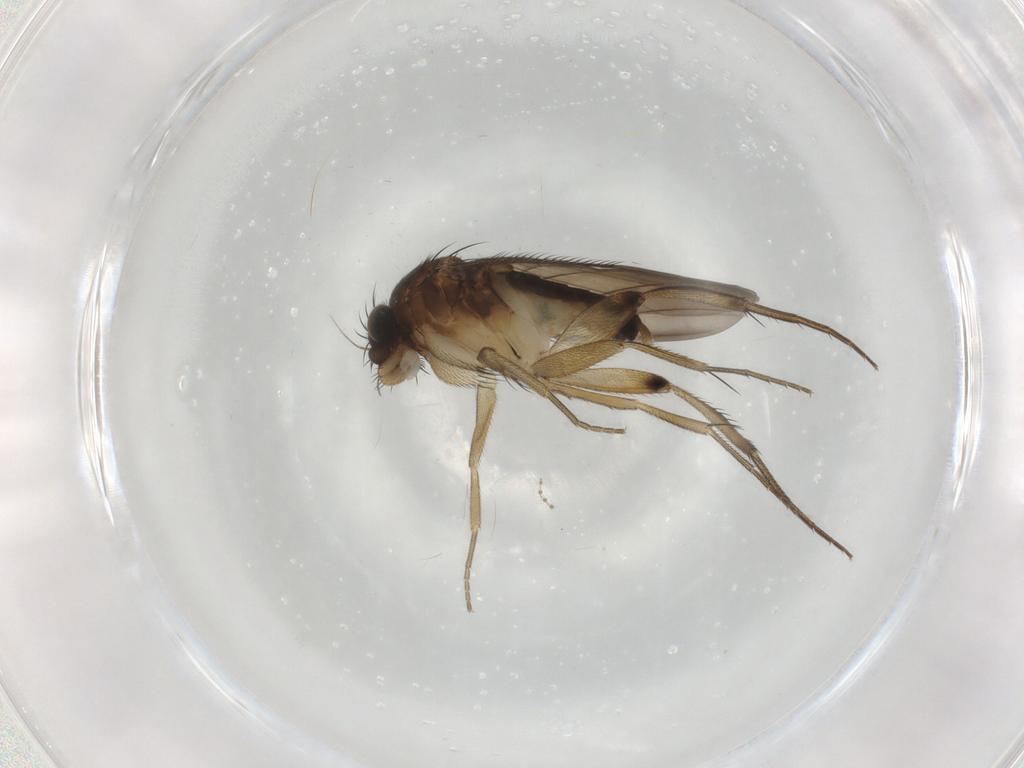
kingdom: Animalia
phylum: Arthropoda
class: Insecta
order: Diptera
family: Phoridae
